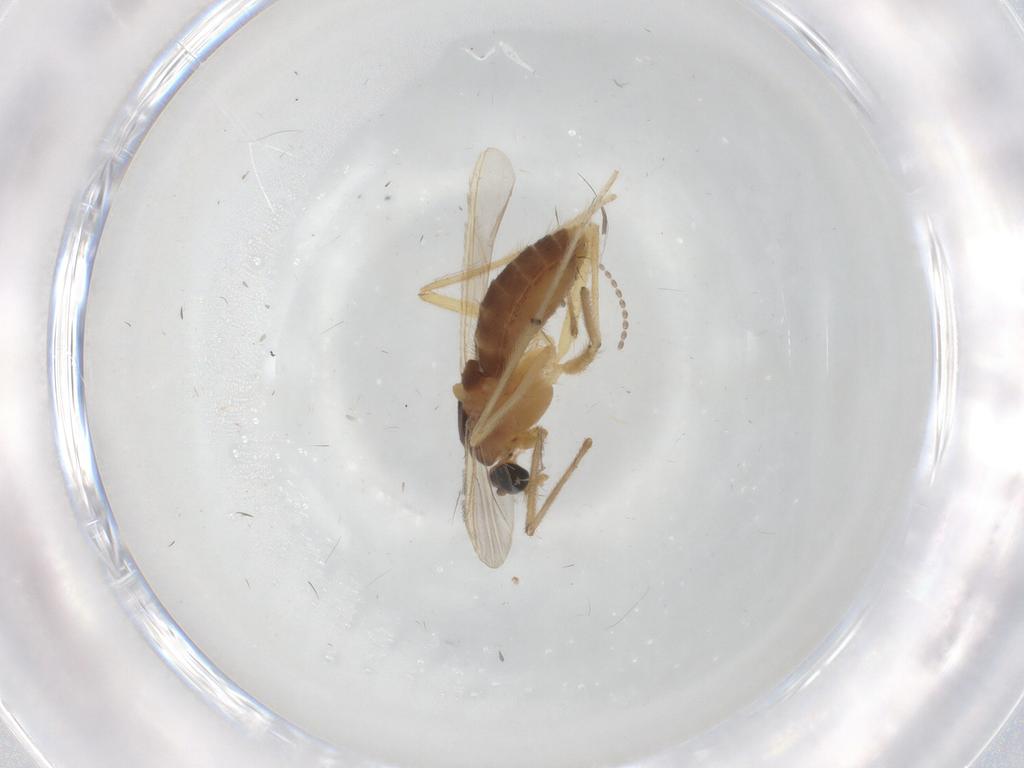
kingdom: Animalia
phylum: Arthropoda
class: Insecta
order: Diptera
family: Chironomidae
